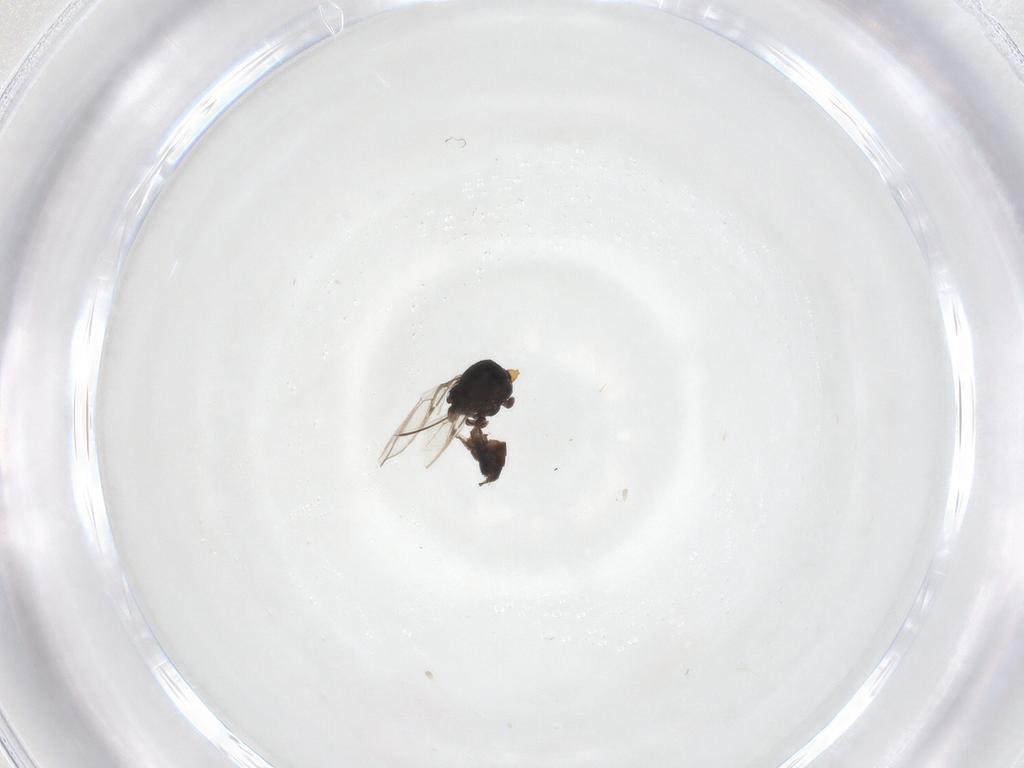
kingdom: Animalia
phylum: Arthropoda
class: Insecta
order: Diptera
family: Chloropidae
